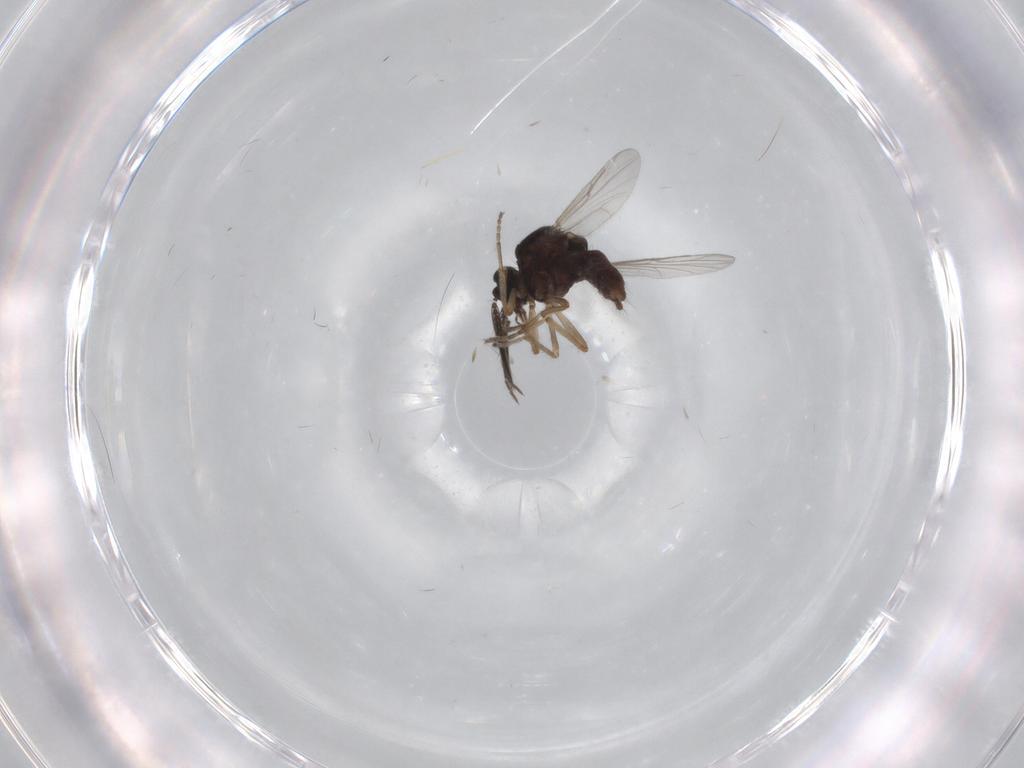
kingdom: Animalia
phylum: Arthropoda
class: Insecta
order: Diptera
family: Ceratopogonidae
